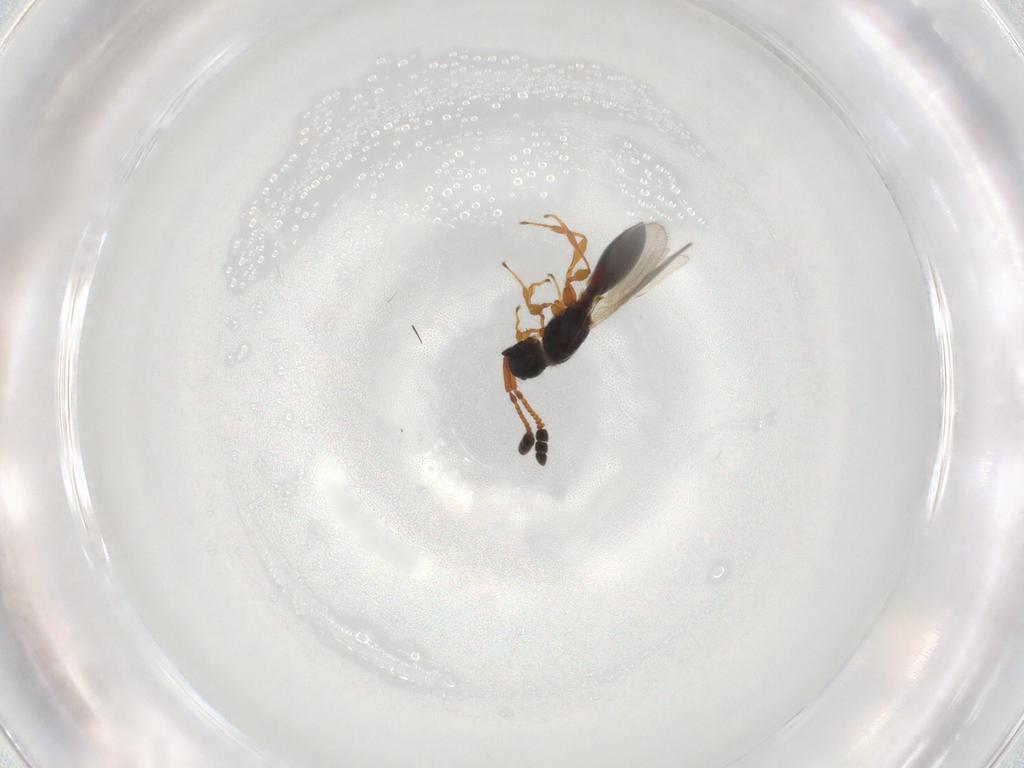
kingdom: Animalia
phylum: Arthropoda
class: Insecta
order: Hymenoptera
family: Diapriidae
